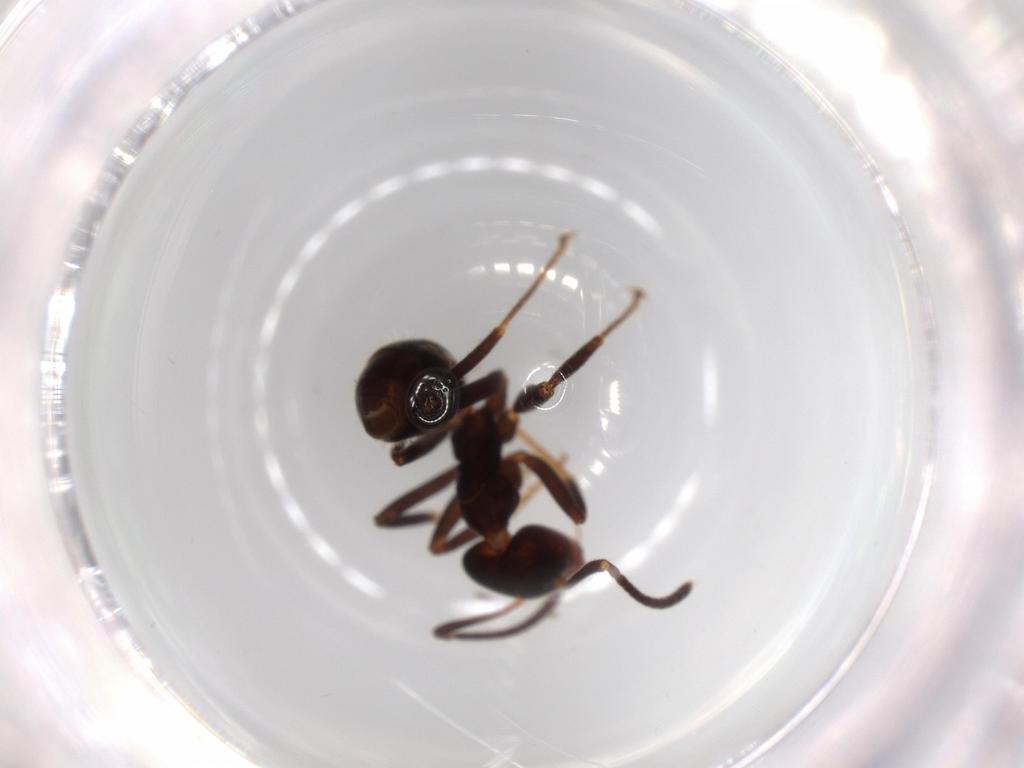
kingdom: Animalia
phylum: Arthropoda
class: Insecta
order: Hymenoptera
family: Formicidae
